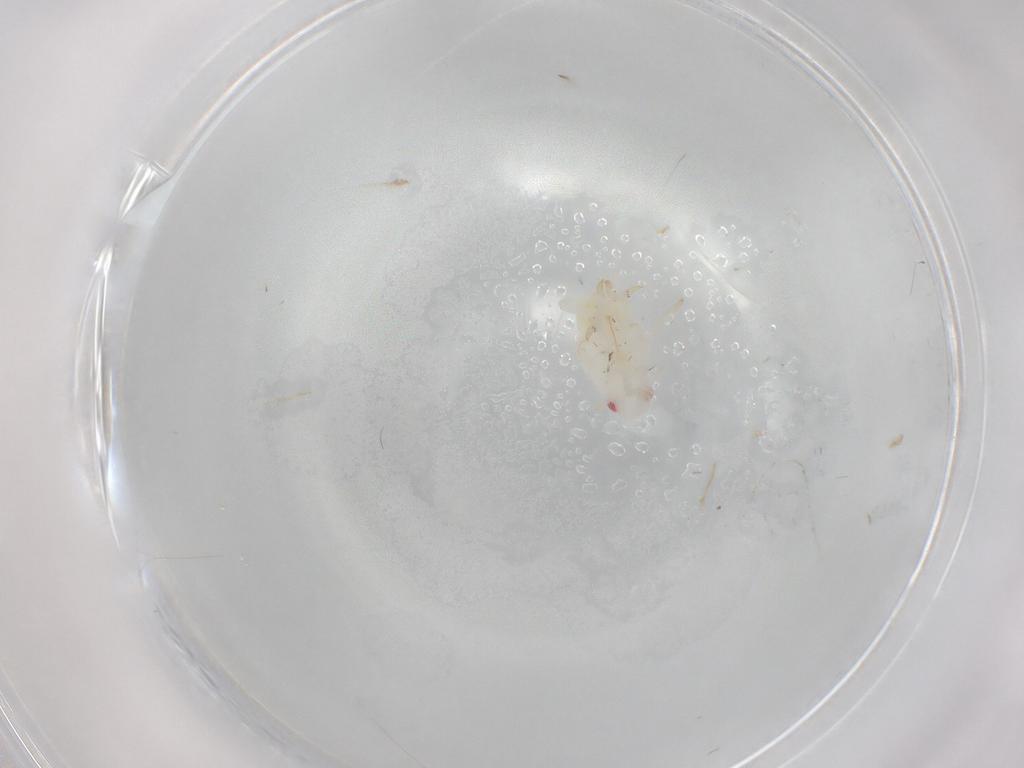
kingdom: Animalia
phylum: Arthropoda
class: Insecta
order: Hemiptera
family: Flatidae
